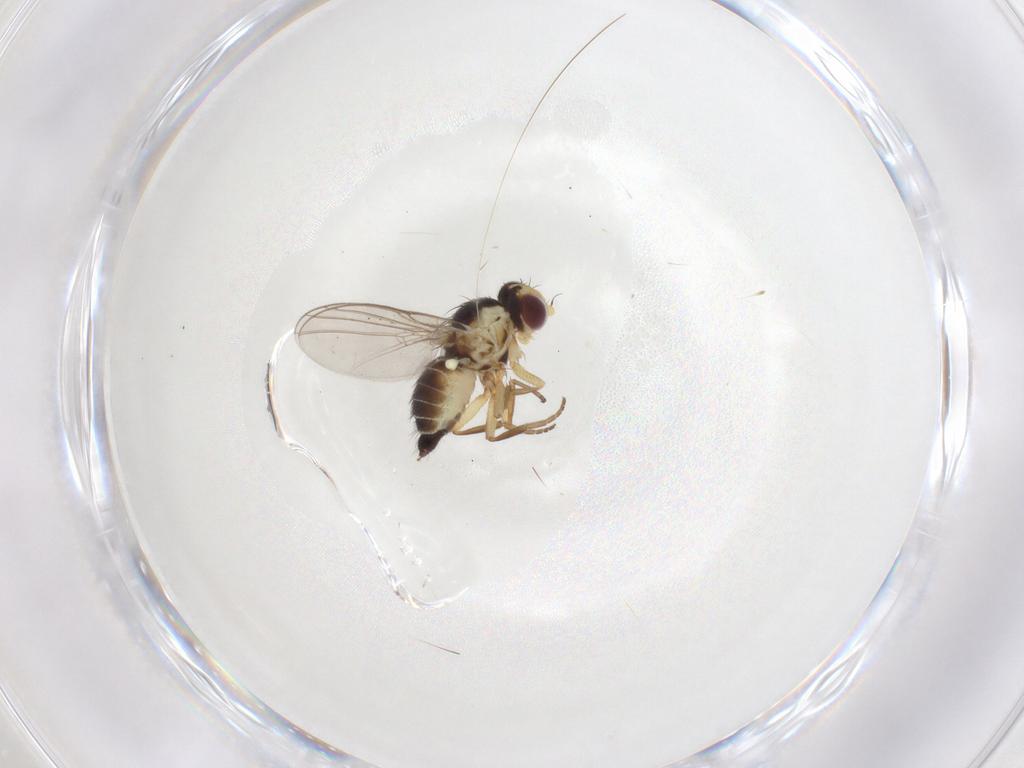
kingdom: Animalia
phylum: Arthropoda
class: Insecta
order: Diptera
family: Agromyzidae
